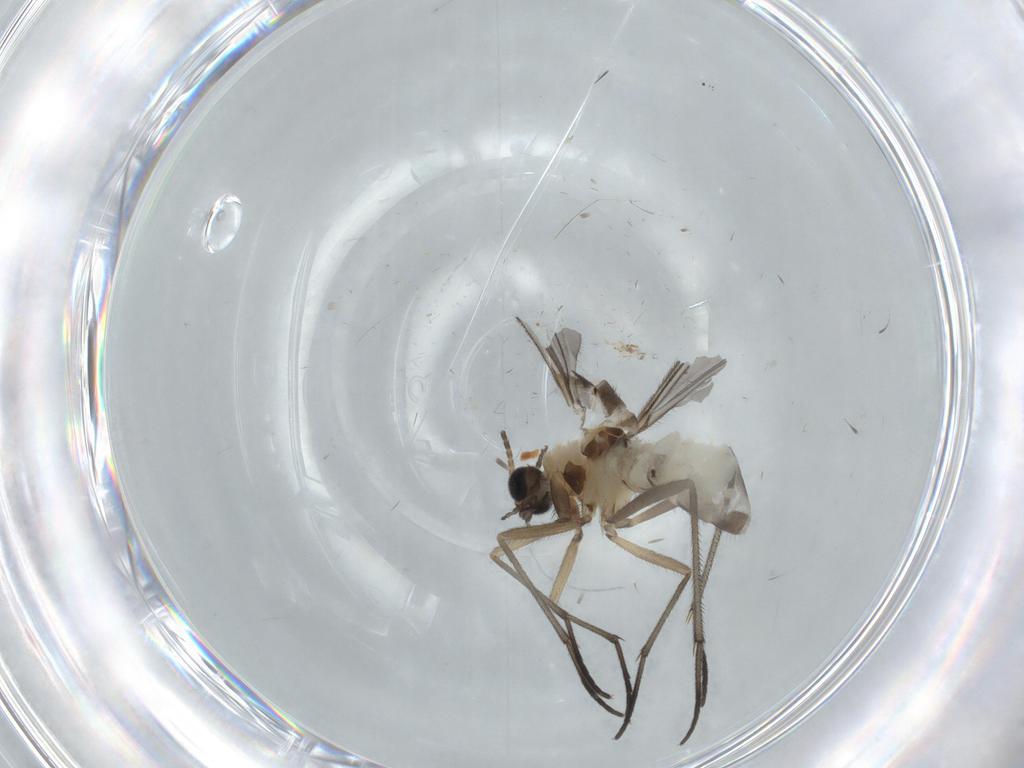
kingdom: Animalia
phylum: Arthropoda
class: Insecta
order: Diptera
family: Sciaridae
